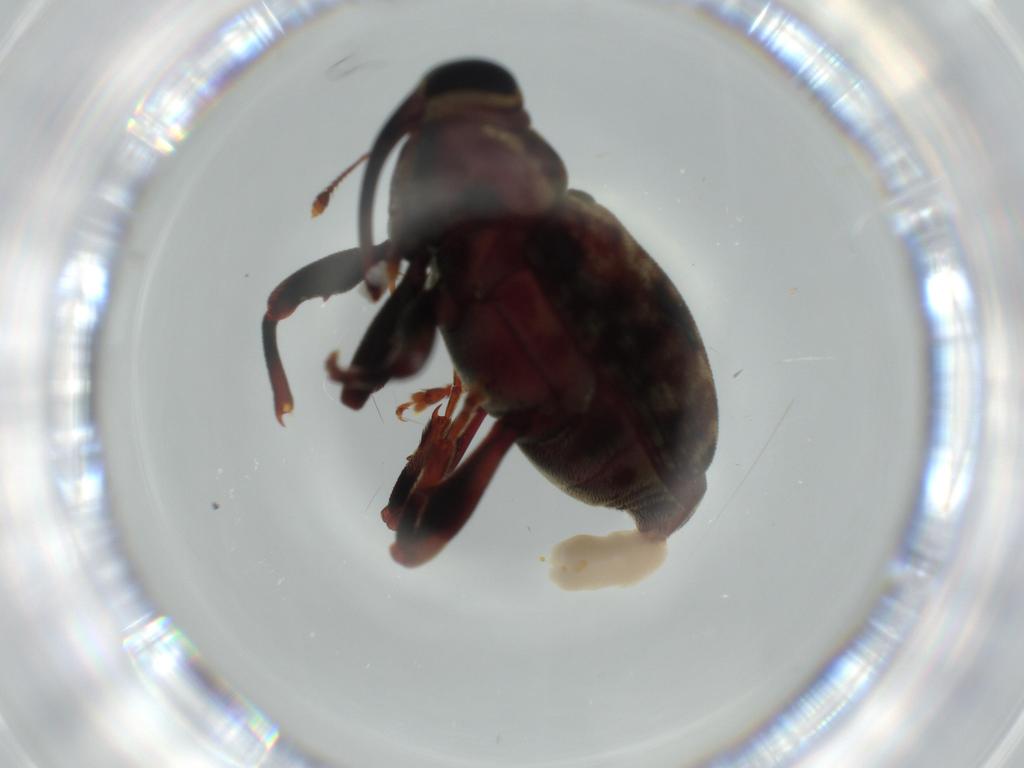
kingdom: Animalia
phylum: Arthropoda
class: Insecta
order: Coleoptera
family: Curculionidae
